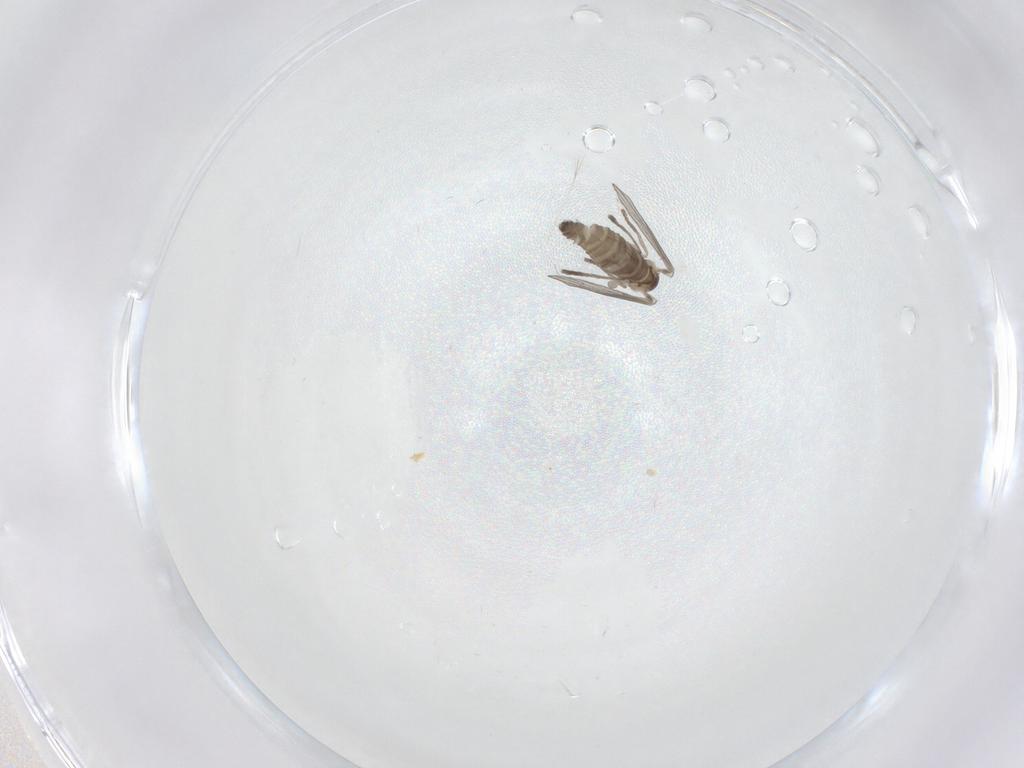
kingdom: Animalia
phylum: Arthropoda
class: Insecta
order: Diptera
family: Psychodidae
